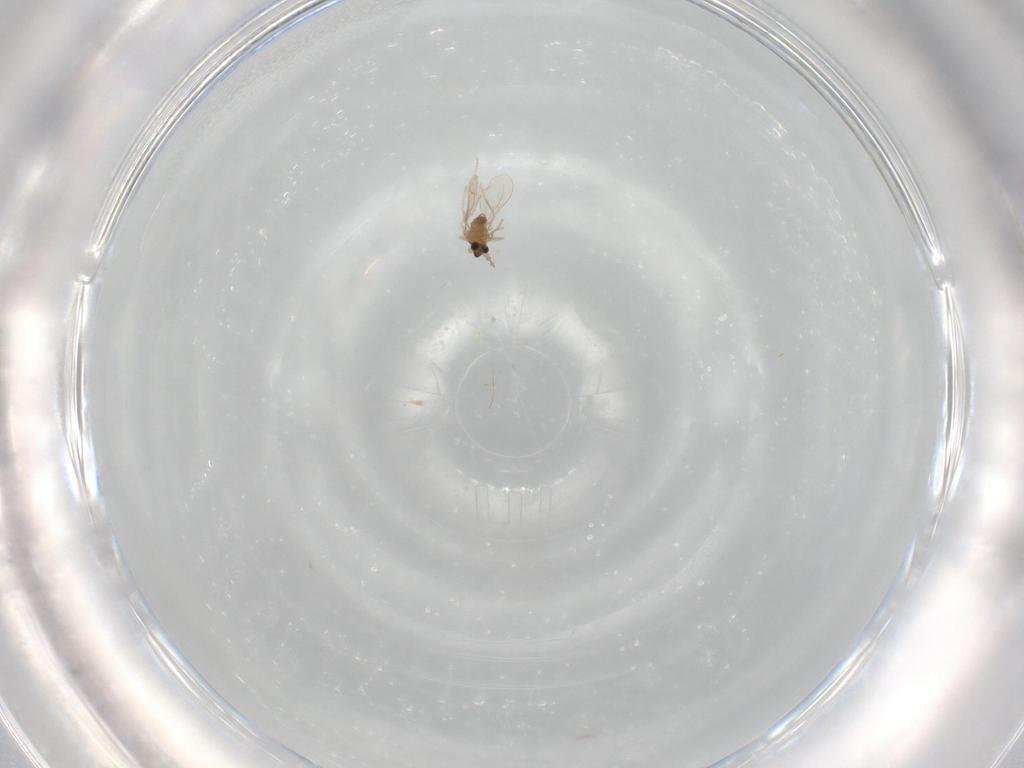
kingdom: Animalia
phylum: Arthropoda
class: Insecta
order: Diptera
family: Cecidomyiidae
